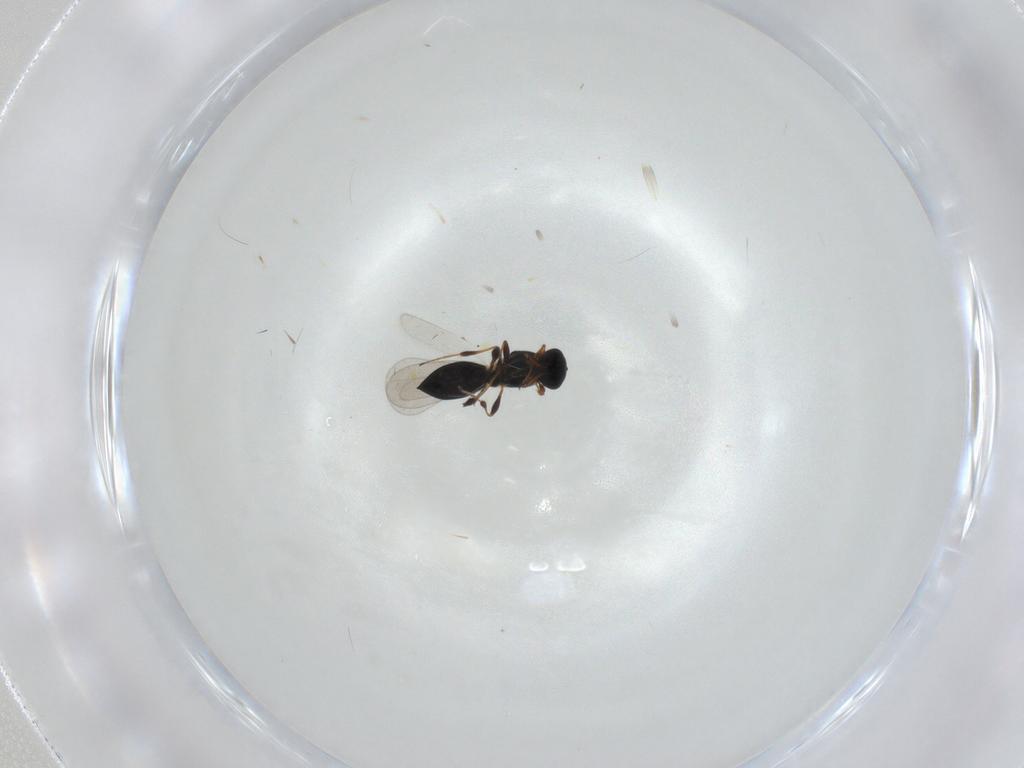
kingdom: Animalia
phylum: Arthropoda
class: Insecta
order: Hymenoptera
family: Platygastridae
